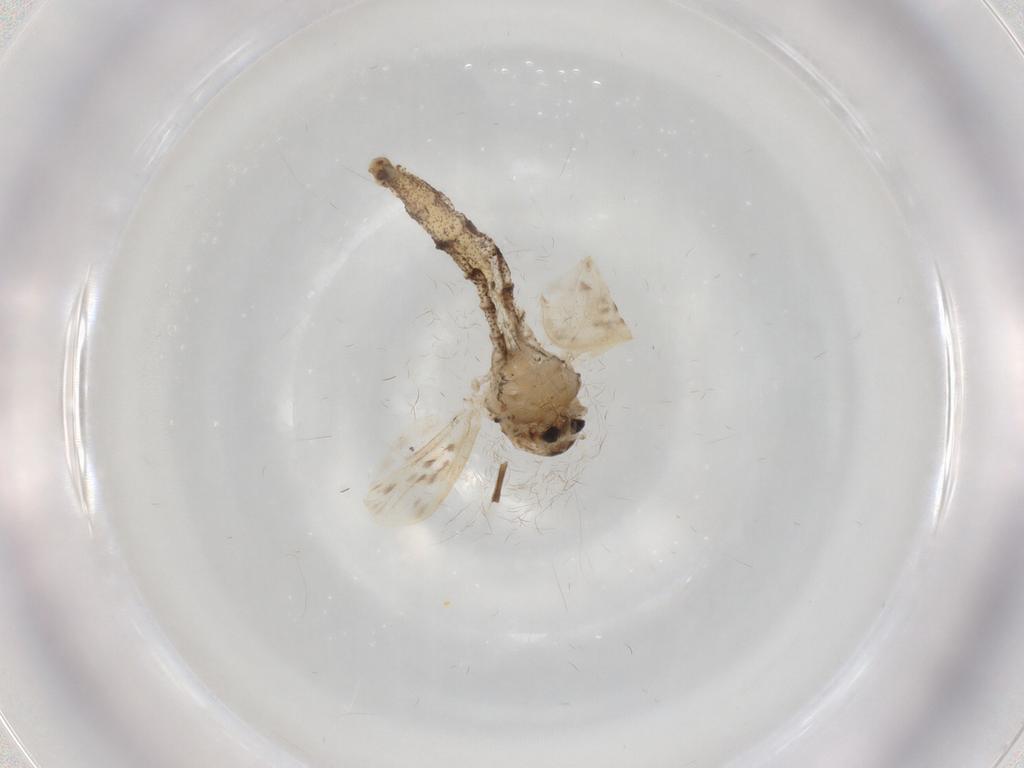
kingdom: Animalia
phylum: Arthropoda
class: Insecta
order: Diptera
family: Chaoboridae
